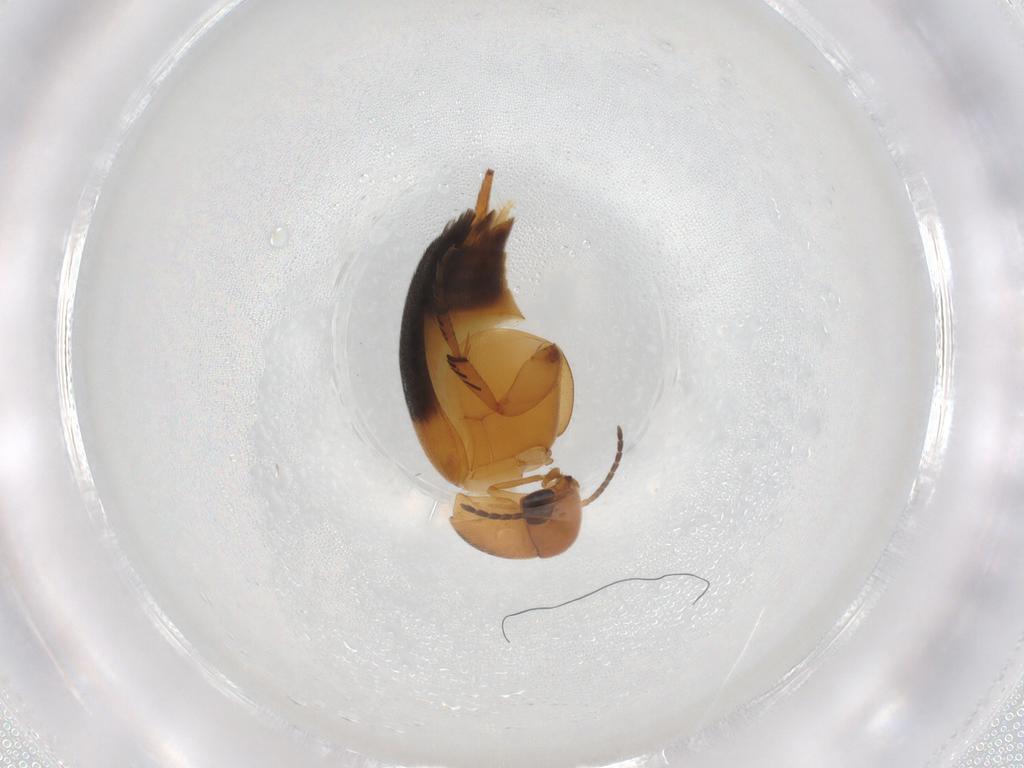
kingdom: Animalia
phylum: Arthropoda
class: Insecta
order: Coleoptera
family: Mordellidae
